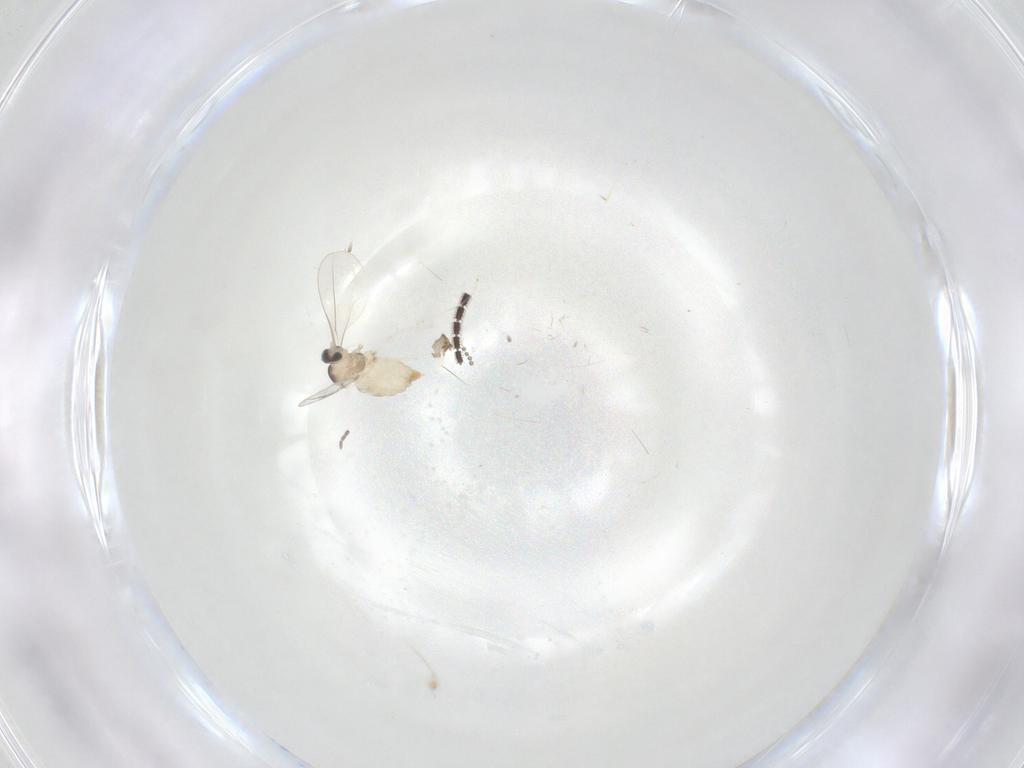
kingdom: Animalia
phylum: Arthropoda
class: Insecta
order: Diptera
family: Cecidomyiidae
